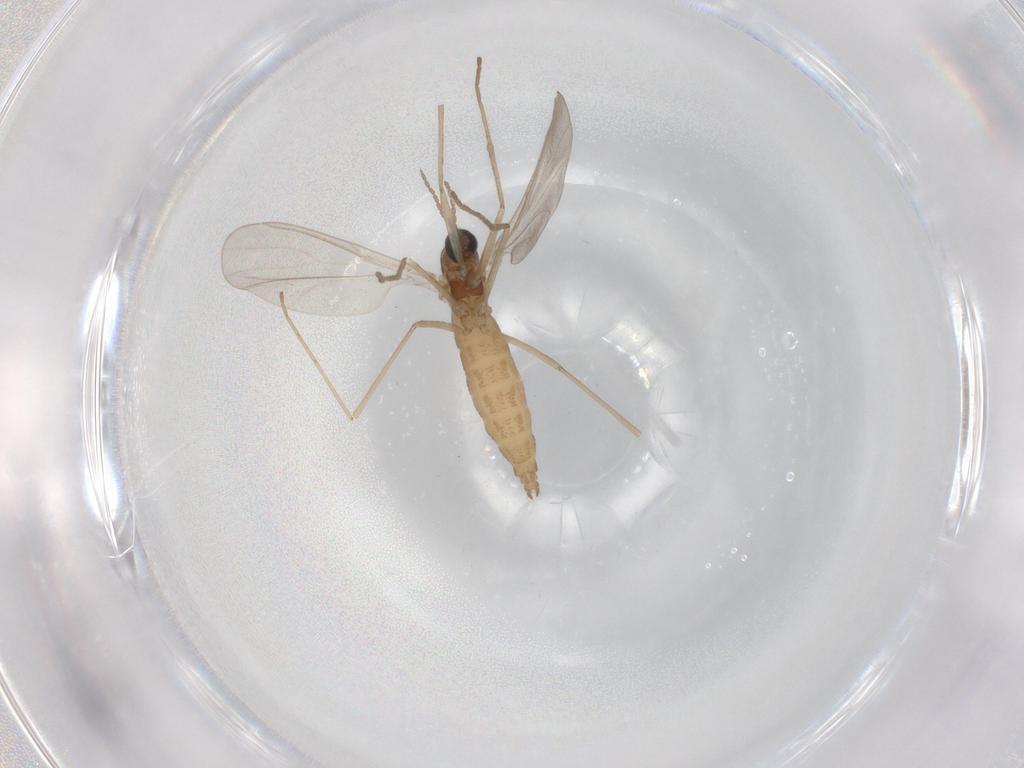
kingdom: Animalia
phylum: Arthropoda
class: Insecta
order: Diptera
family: Cecidomyiidae
